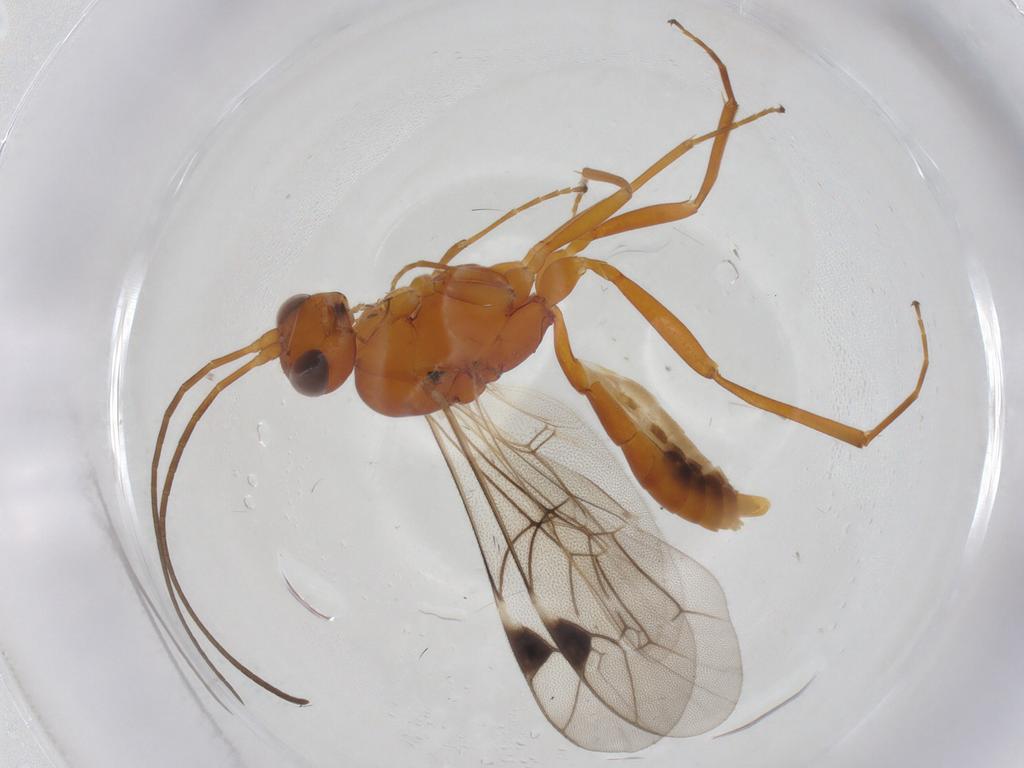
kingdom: Animalia
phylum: Arthropoda
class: Insecta
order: Hymenoptera
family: Ichneumonidae
